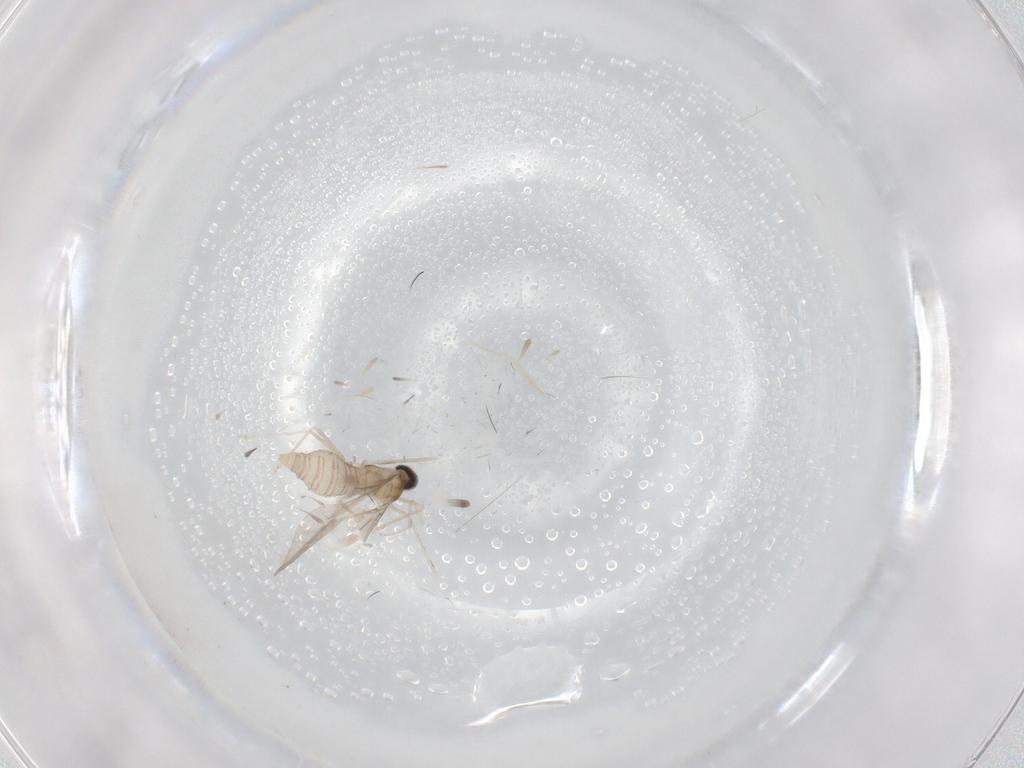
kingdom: Animalia
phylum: Arthropoda
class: Insecta
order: Diptera
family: Cecidomyiidae
